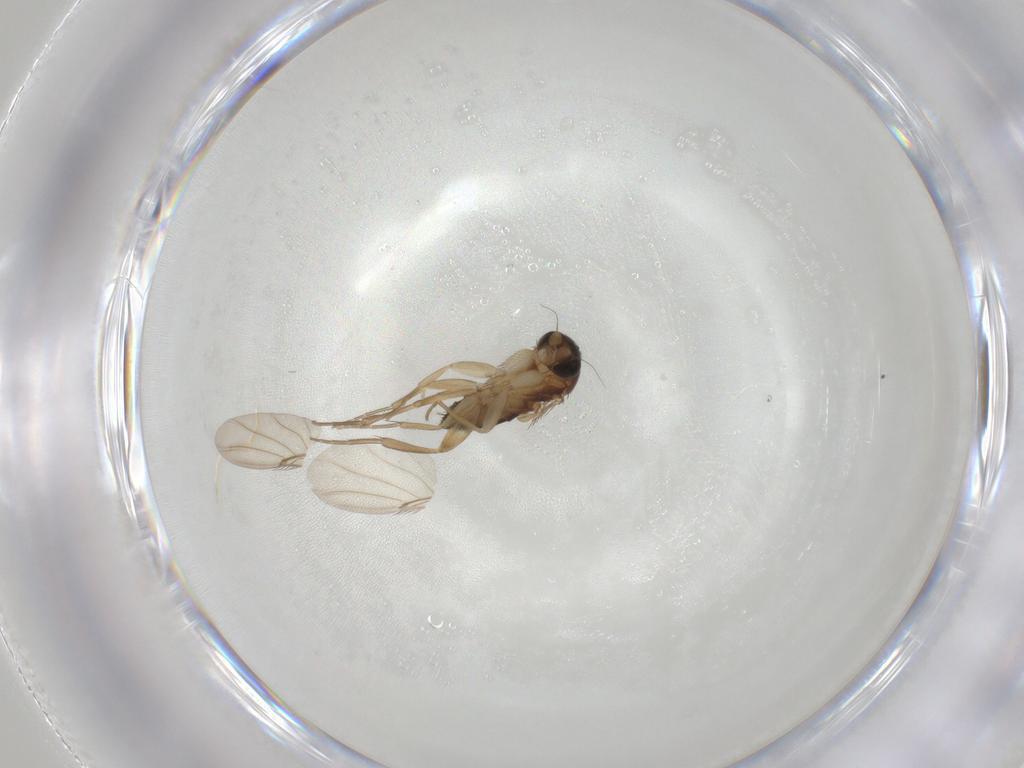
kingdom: Animalia
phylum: Arthropoda
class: Insecta
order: Diptera
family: Phoridae
